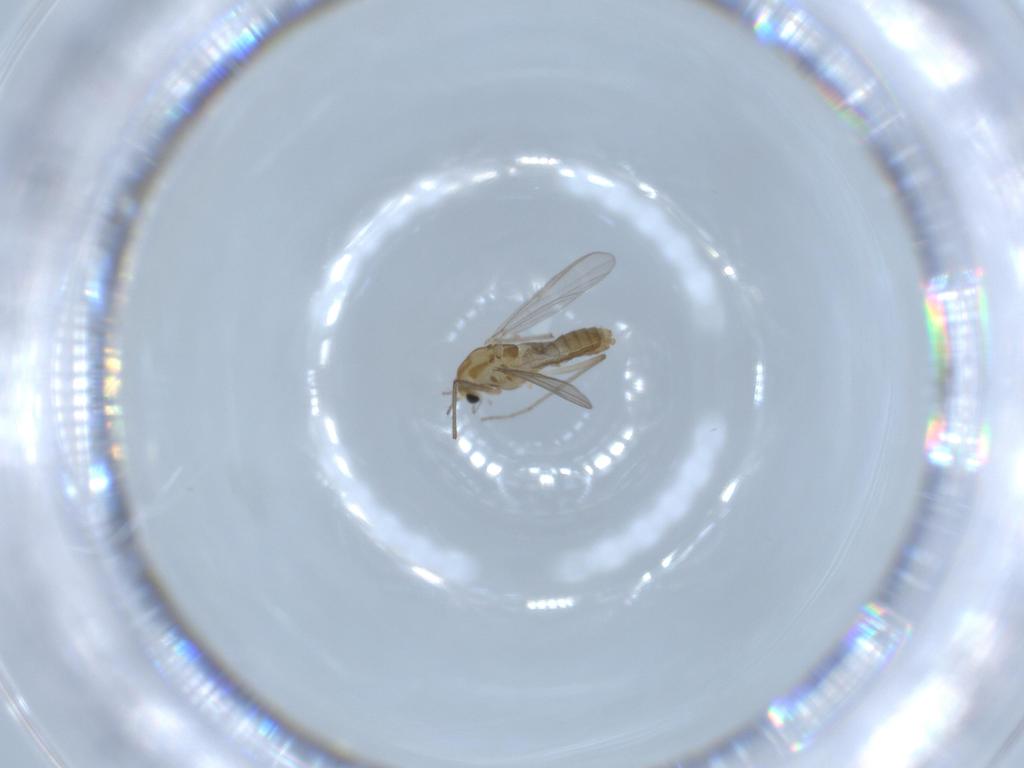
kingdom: Animalia
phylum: Arthropoda
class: Insecta
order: Diptera
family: Chironomidae
